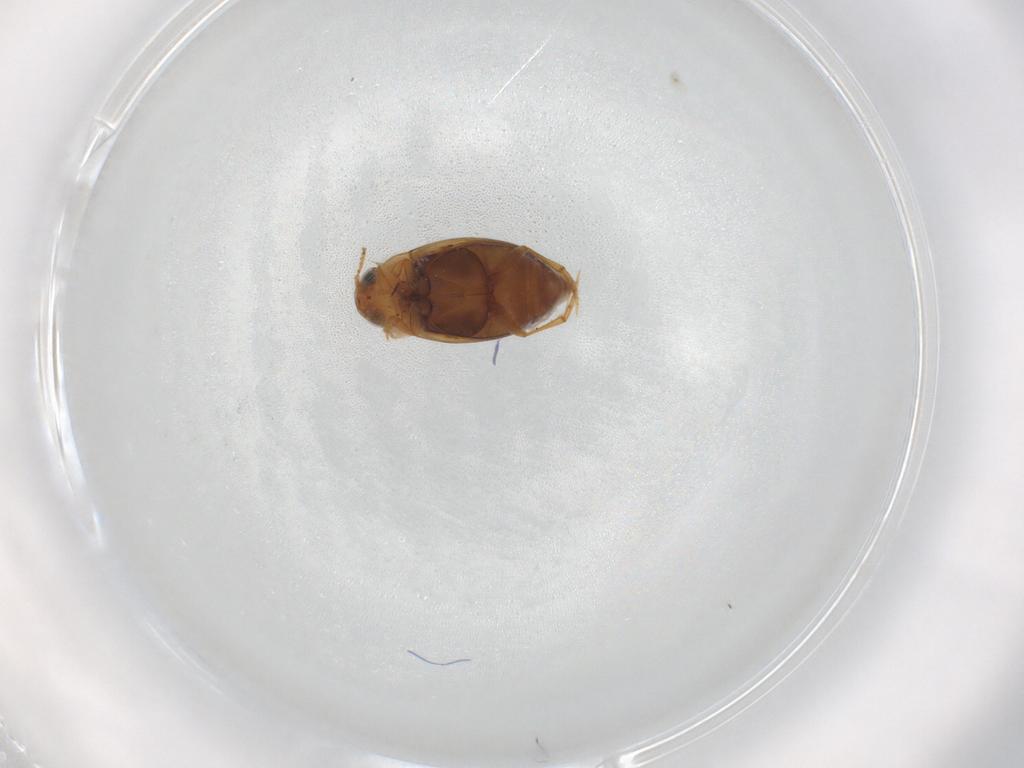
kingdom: Animalia
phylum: Arthropoda
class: Insecta
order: Coleoptera
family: Dytiscidae
